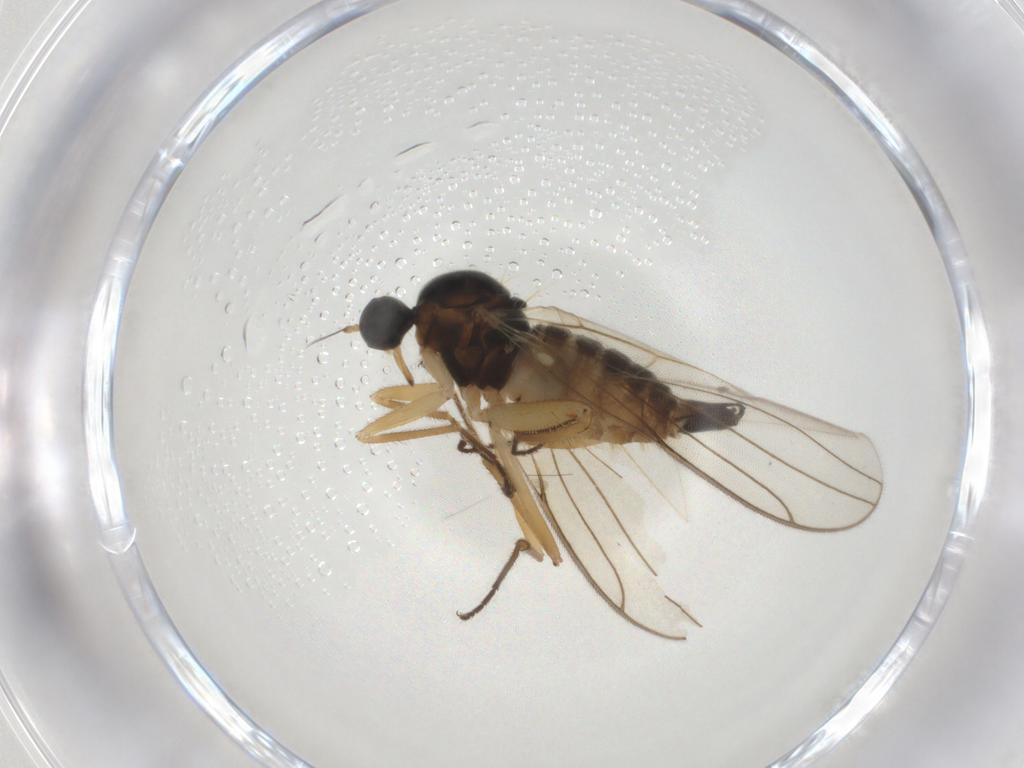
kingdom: Animalia
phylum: Arthropoda
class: Insecta
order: Diptera
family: Hybotidae
